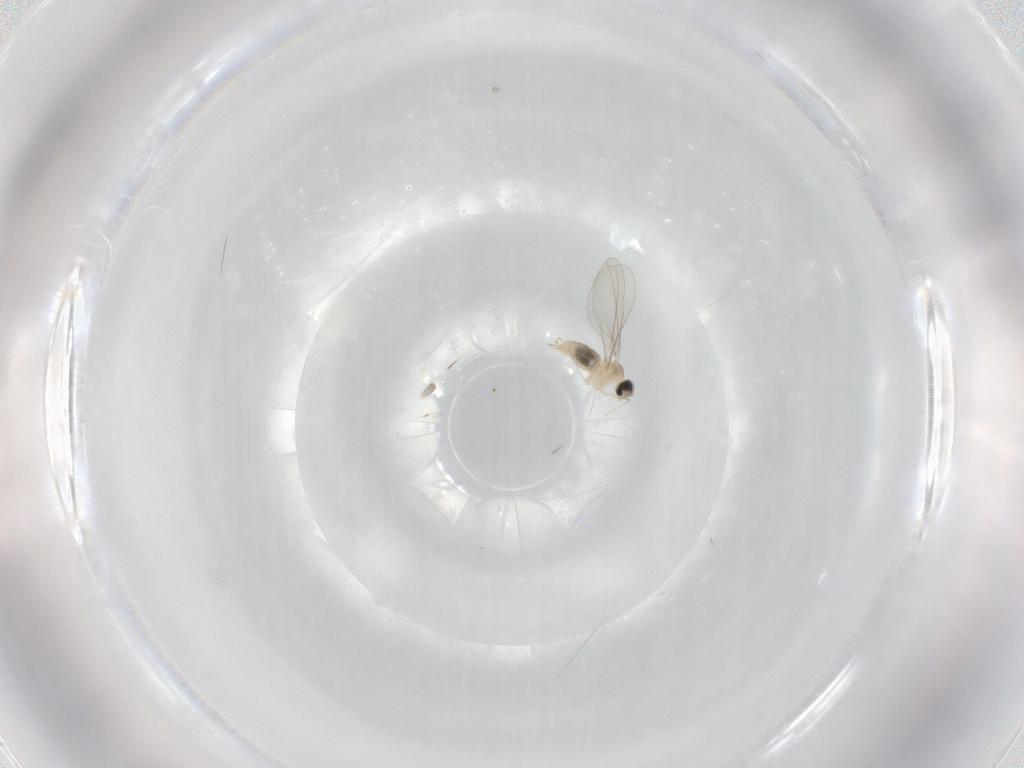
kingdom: Animalia
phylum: Arthropoda
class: Insecta
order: Diptera
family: Cecidomyiidae
